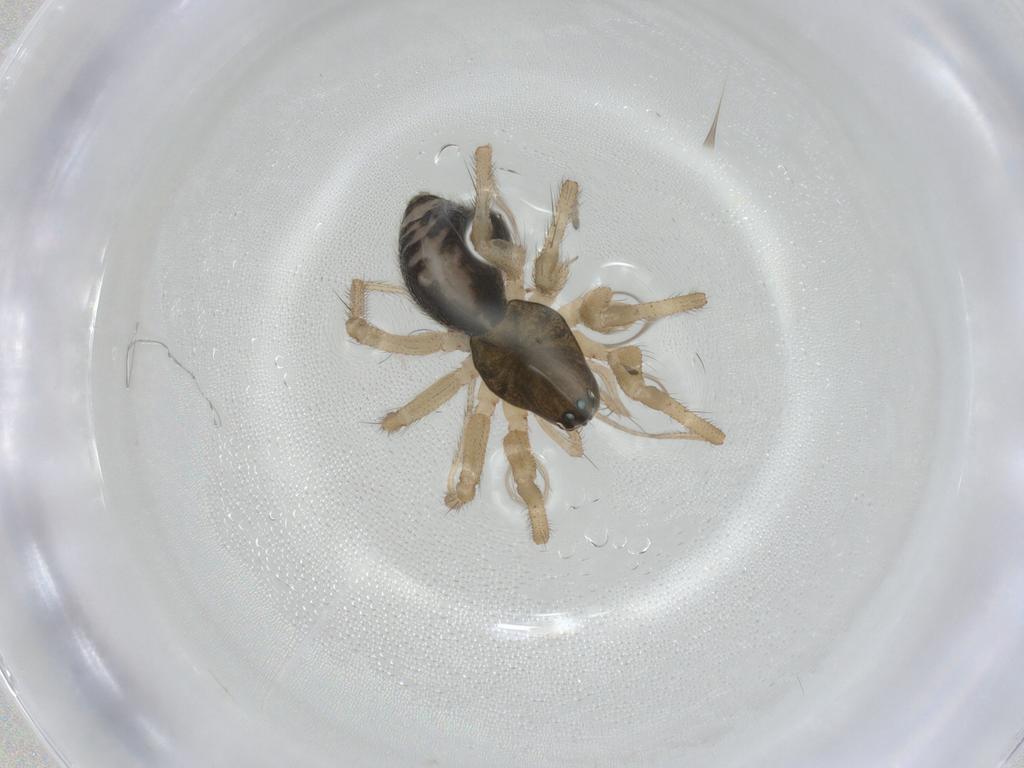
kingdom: Animalia
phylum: Arthropoda
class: Arachnida
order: Araneae
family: Linyphiidae
